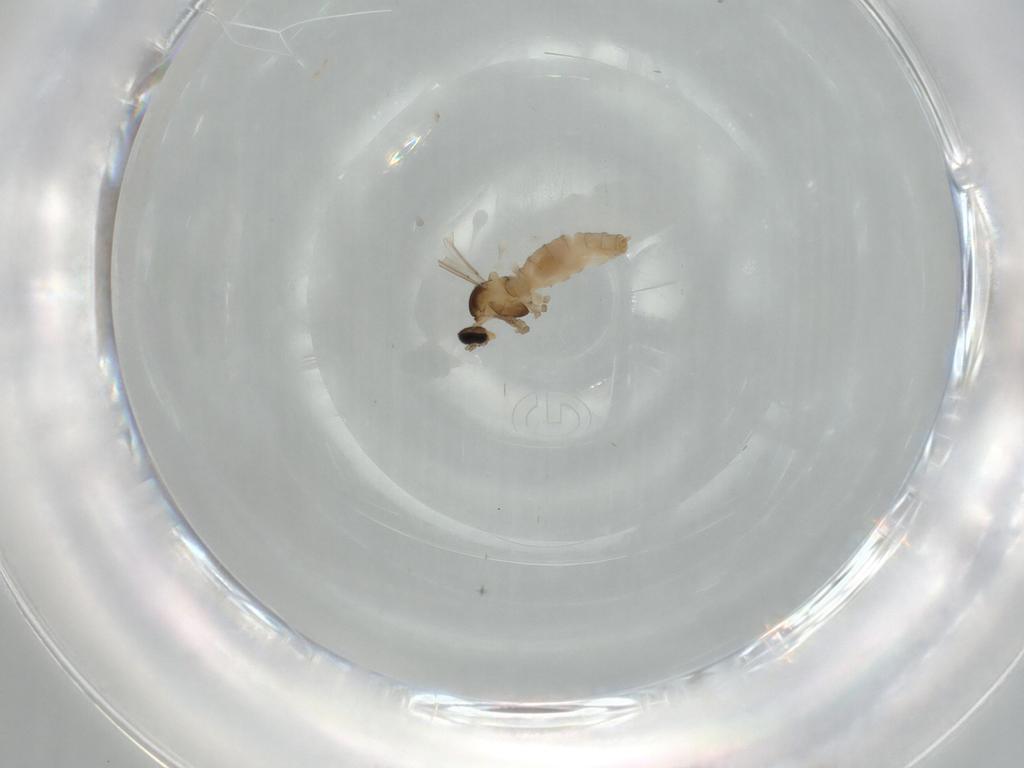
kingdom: Animalia
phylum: Arthropoda
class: Insecta
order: Diptera
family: Cecidomyiidae
